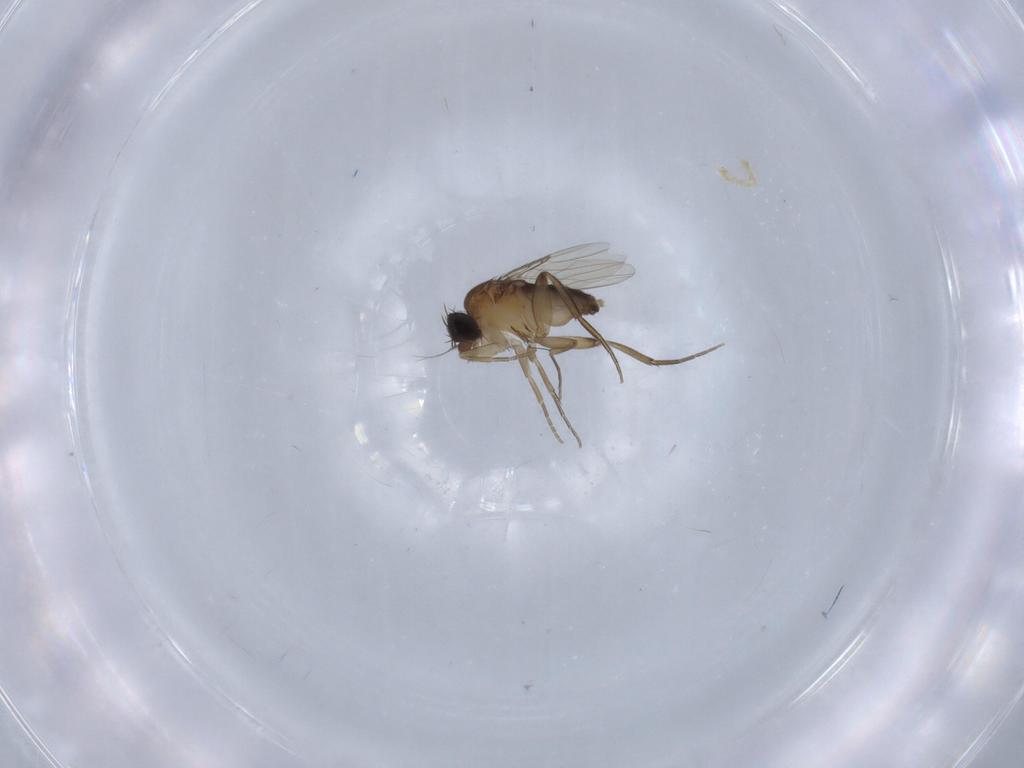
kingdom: Animalia
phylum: Arthropoda
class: Insecta
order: Diptera
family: Phoridae
